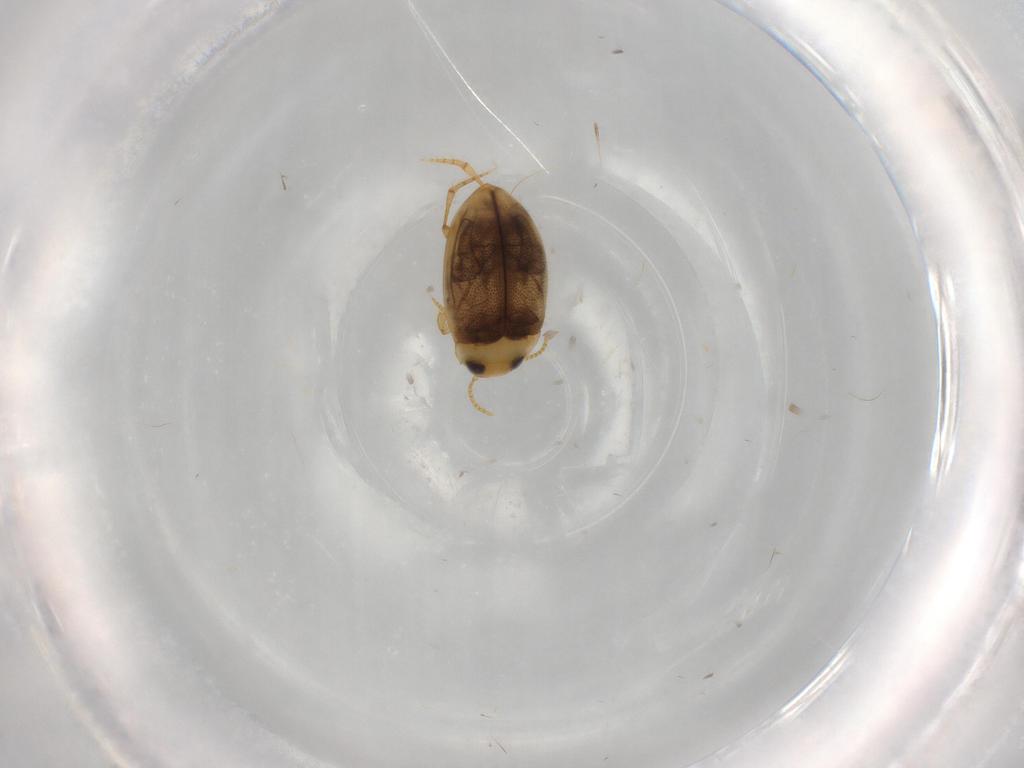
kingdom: Animalia
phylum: Arthropoda
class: Insecta
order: Coleoptera
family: Dytiscidae
